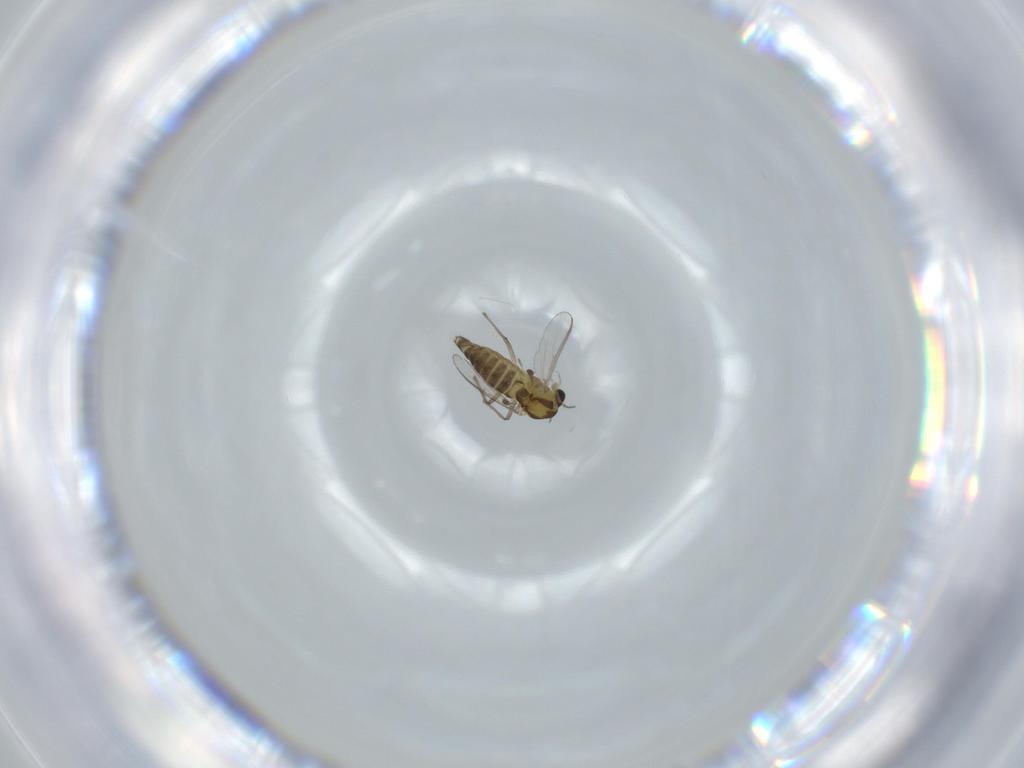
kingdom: Animalia
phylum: Arthropoda
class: Insecta
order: Diptera
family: Chironomidae
